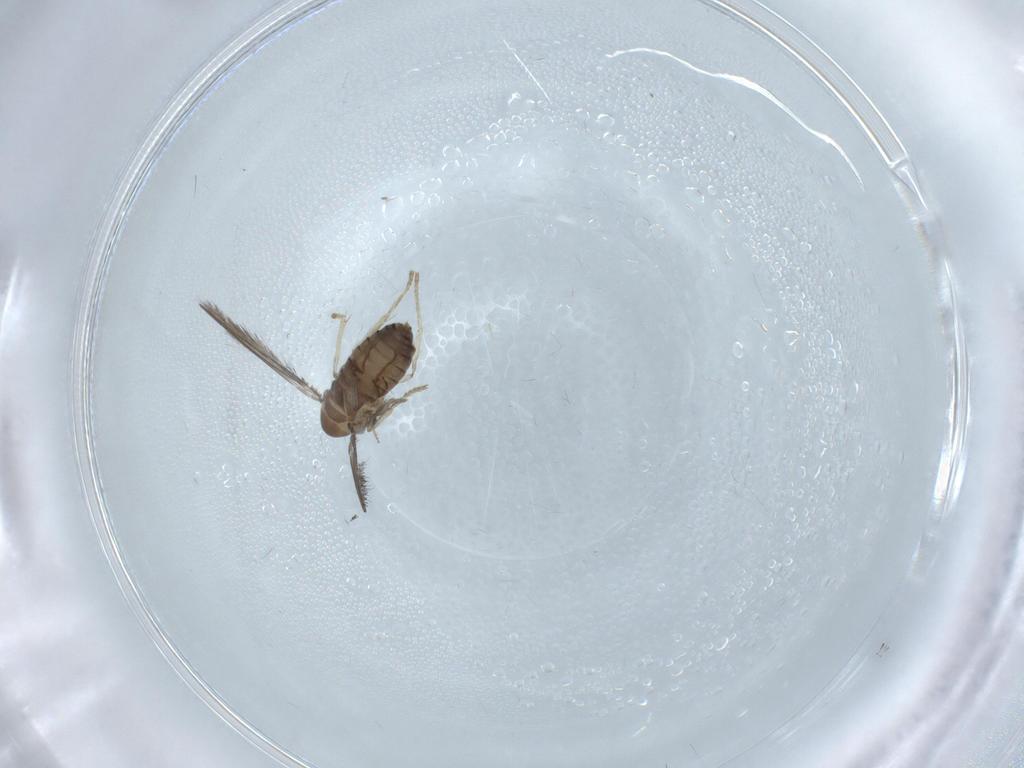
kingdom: Animalia
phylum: Arthropoda
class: Insecta
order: Diptera
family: Psychodidae
